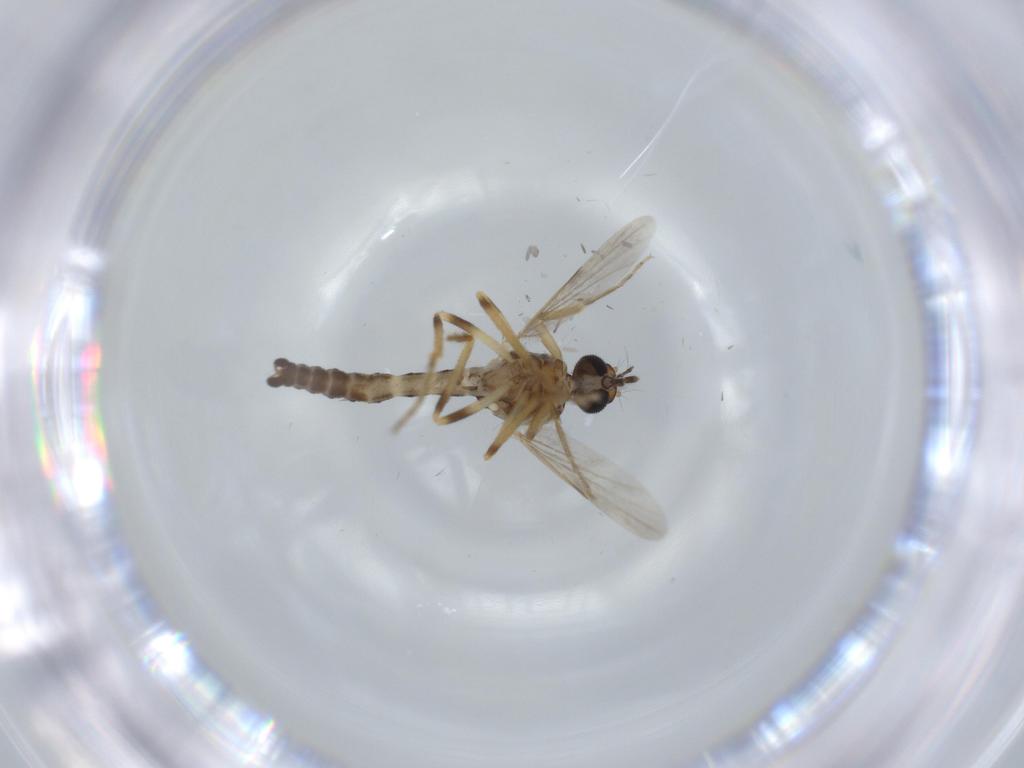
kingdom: Animalia
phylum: Arthropoda
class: Insecta
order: Diptera
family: Ceratopogonidae
